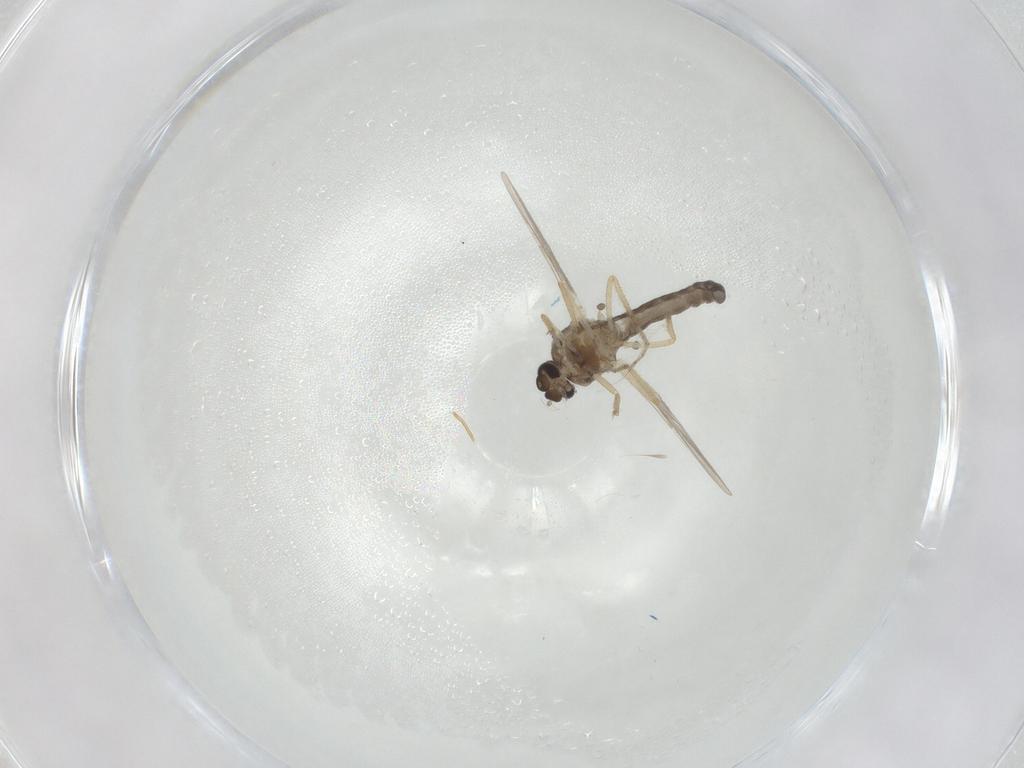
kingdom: Animalia
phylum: Arthropoda
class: Insecta
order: Diptera
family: Ceratopogonidae
